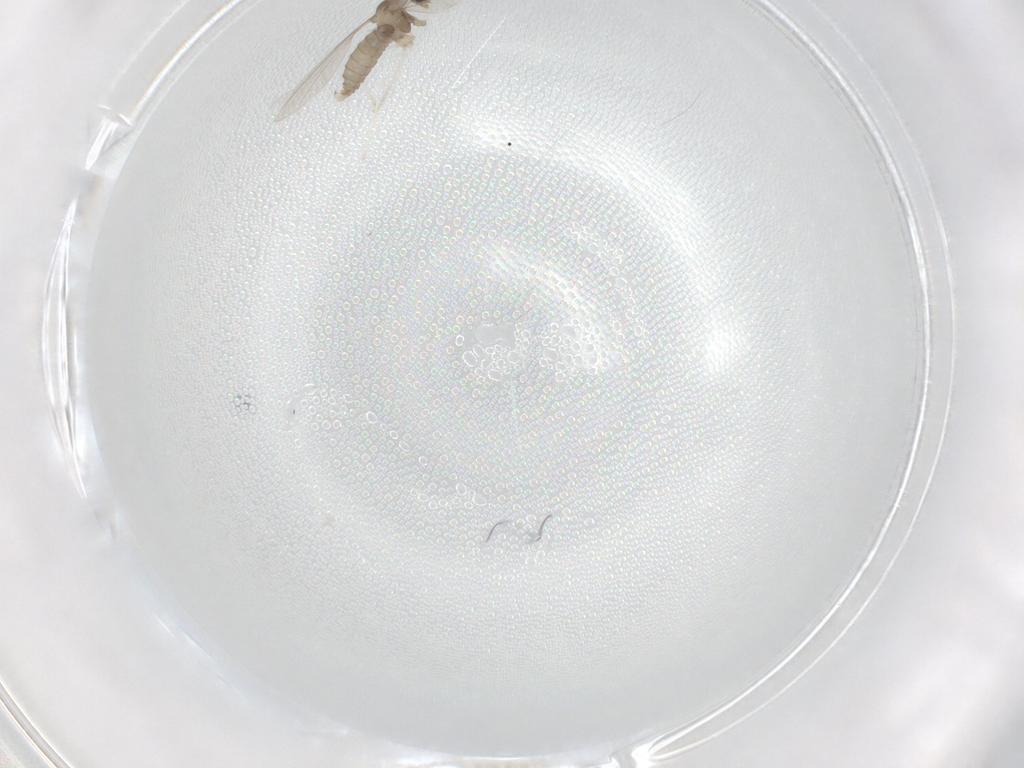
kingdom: Animalia
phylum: Arthropoda
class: Insecta
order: Diptera
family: Cecidomyiidae
